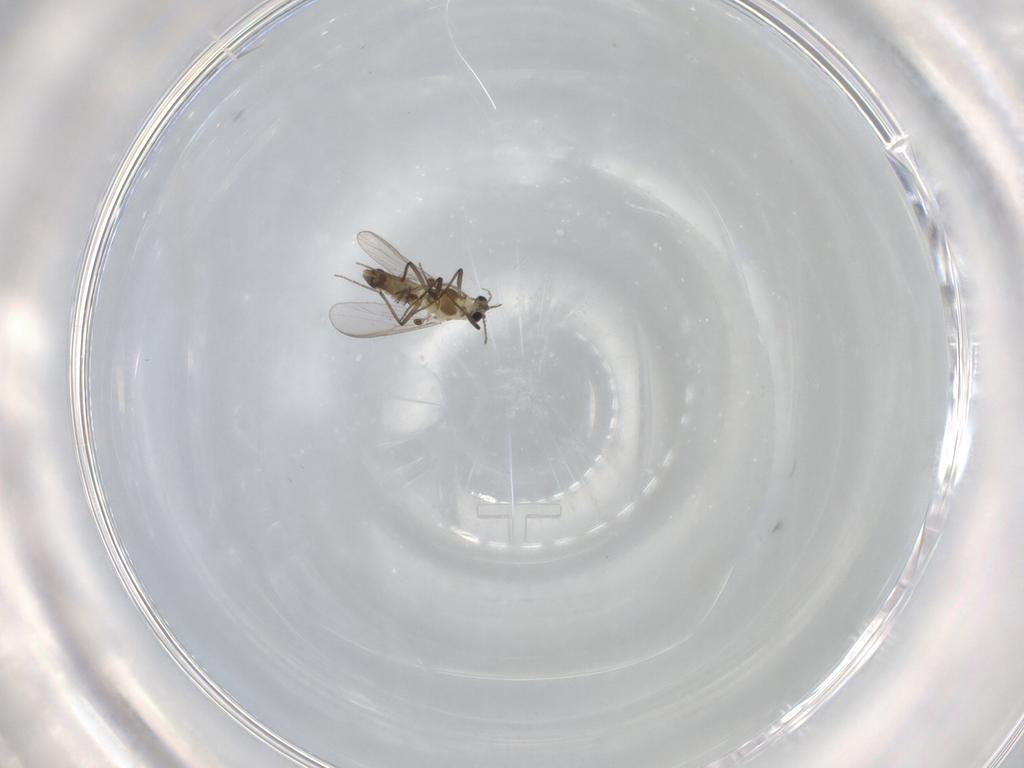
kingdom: Animalia
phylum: Arthropoda
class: Insecta
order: Diptera
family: Chironomidae
